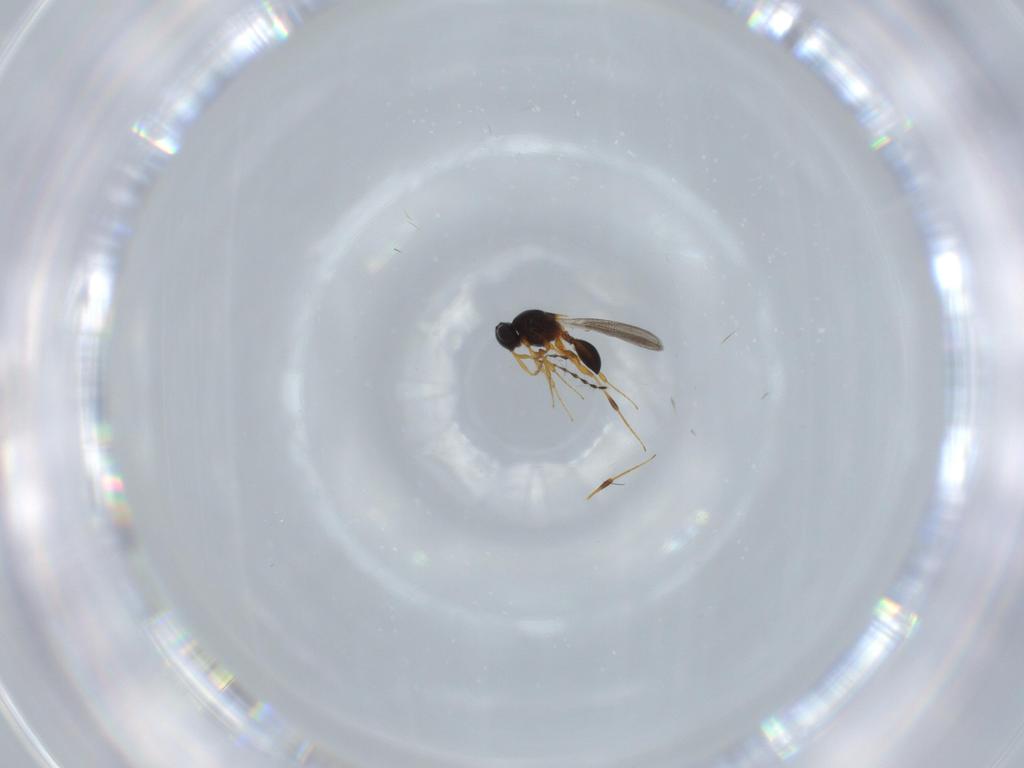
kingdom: Animalia
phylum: Arthropoda
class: Insecta
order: Hymenoptera
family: Platygastridae
